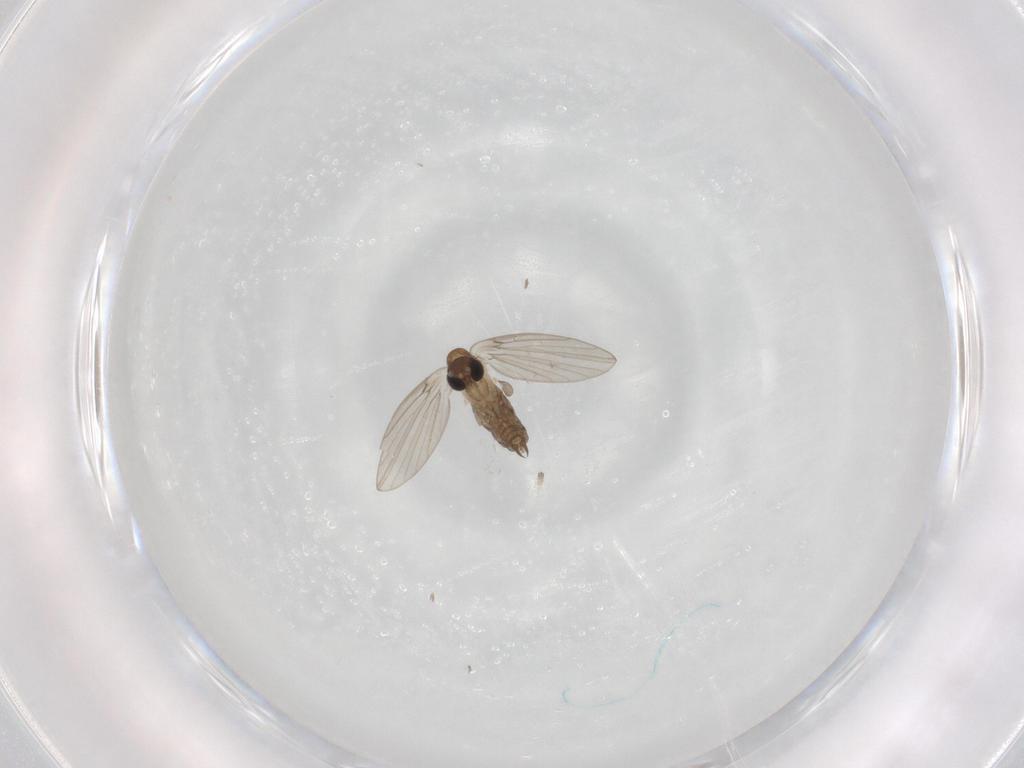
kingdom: Animalia
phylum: Arthropoda
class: Insecta
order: Diptera
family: Psychodidae
